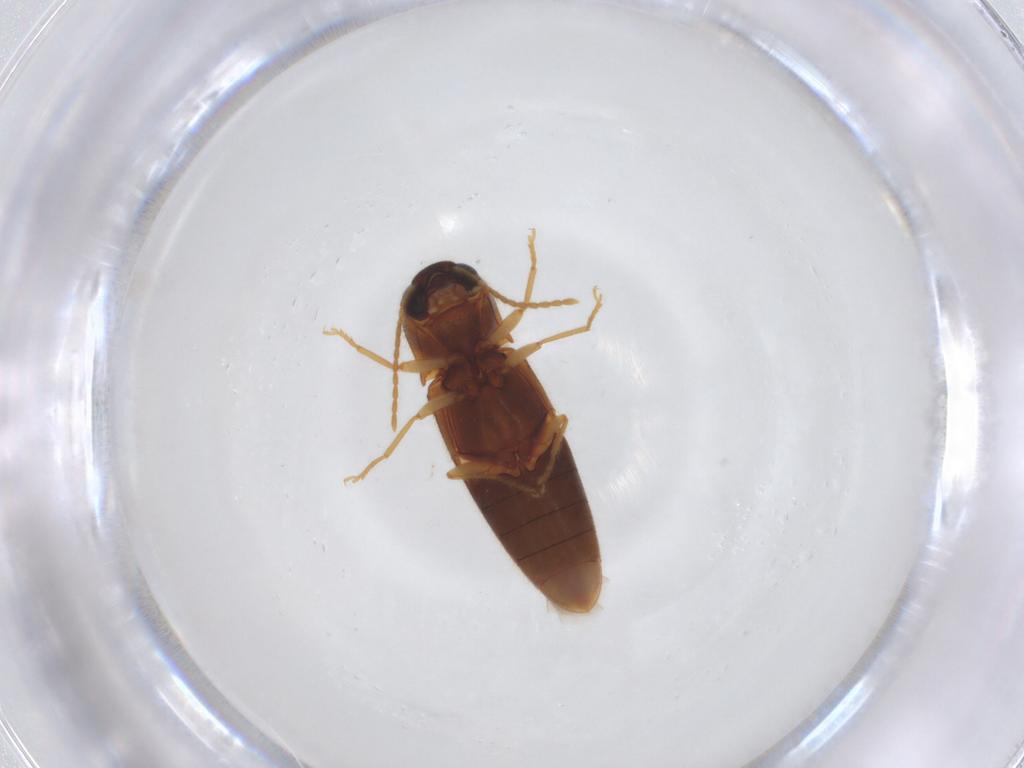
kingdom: Animalia
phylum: Arthropoda
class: Insecta
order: Coleoptera
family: Elateridae
